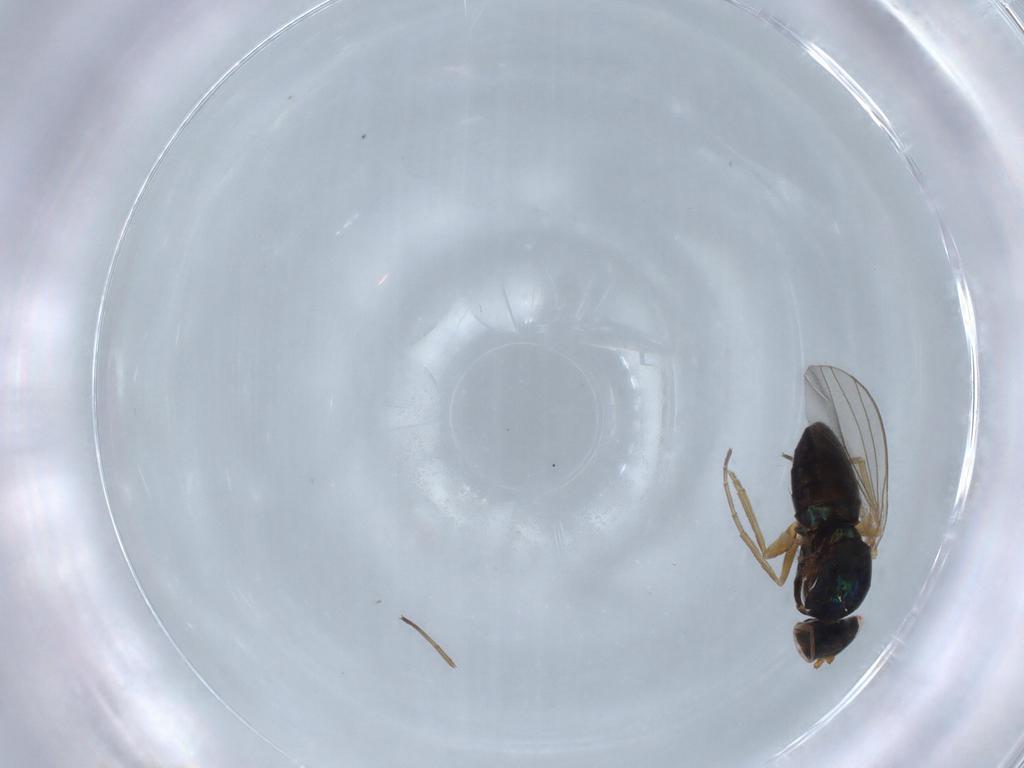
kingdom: Animalia
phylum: Arthropoda
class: Insecta
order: Diptera
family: Dolichopodidae
